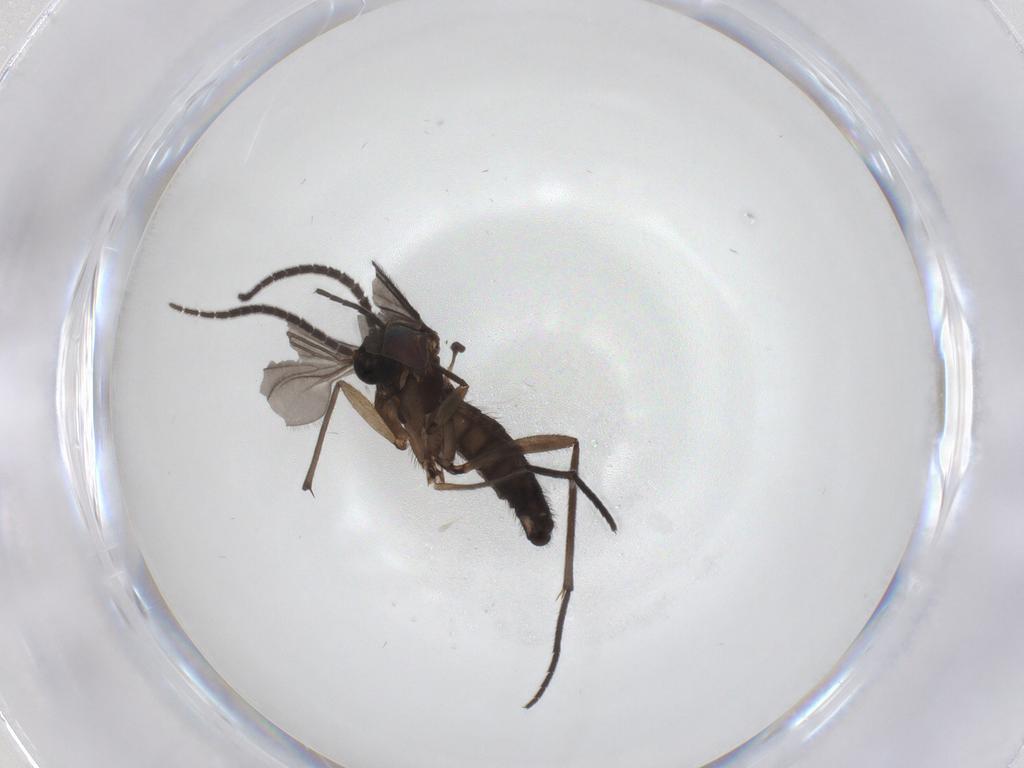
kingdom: Animalia
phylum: Arthropoda
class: Insecta
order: Diptera
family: Sciaridae
